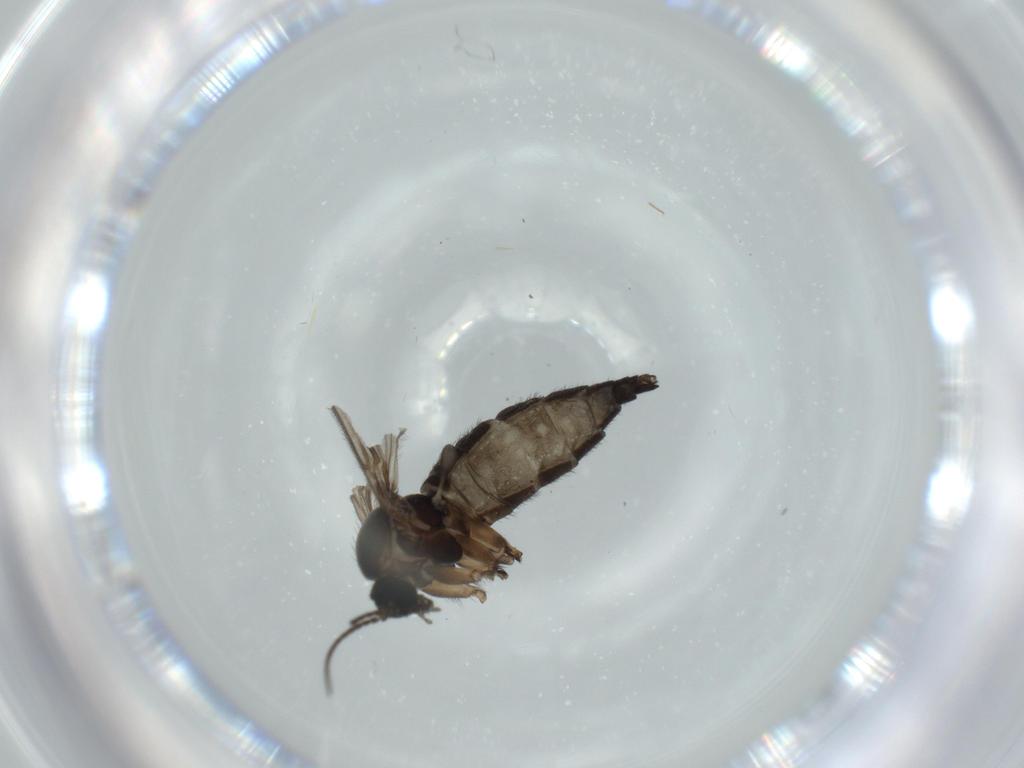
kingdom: Animalia
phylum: Arthropoda
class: Insecta
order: Diptera
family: Sciaridae
